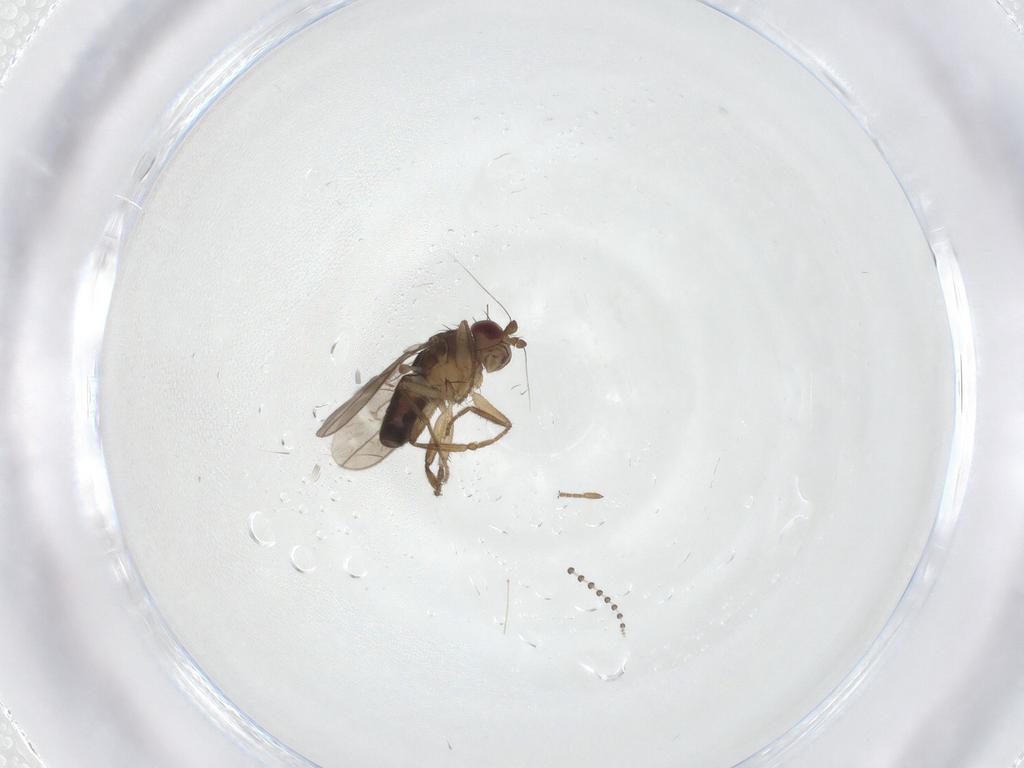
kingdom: Animalia
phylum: Arthropoda
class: Insecta
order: Diptera
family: Sphaeroceridae
